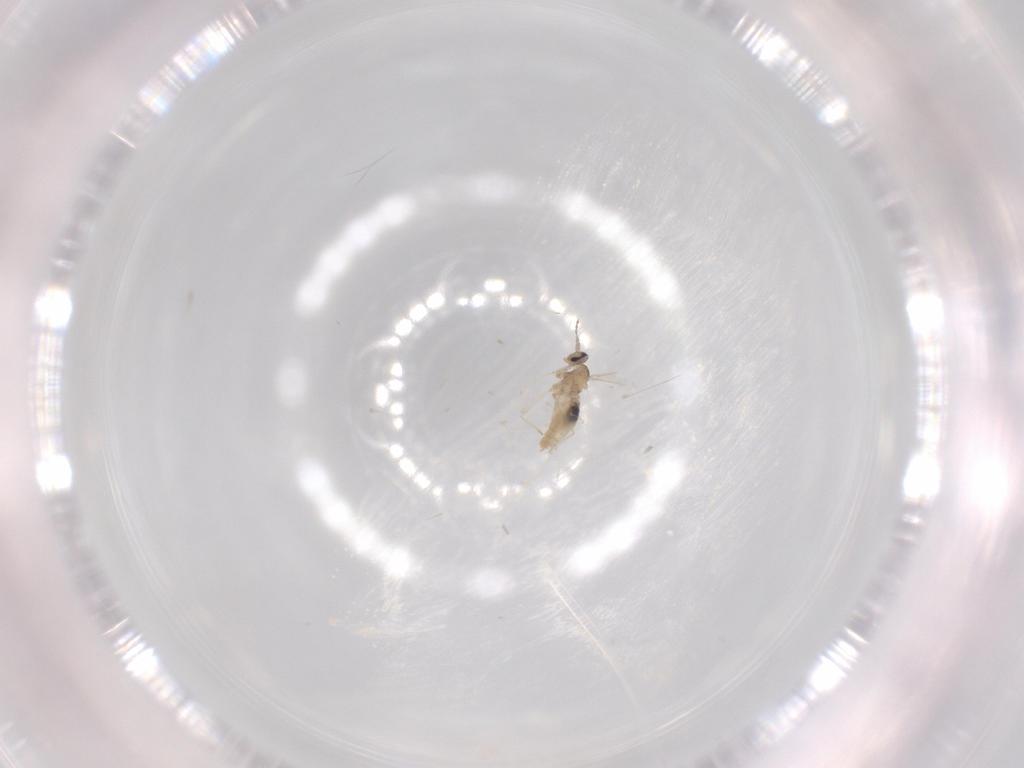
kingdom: Animalia
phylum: Arthropoda
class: Insecta
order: Diptera
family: Cecidomyiidae
